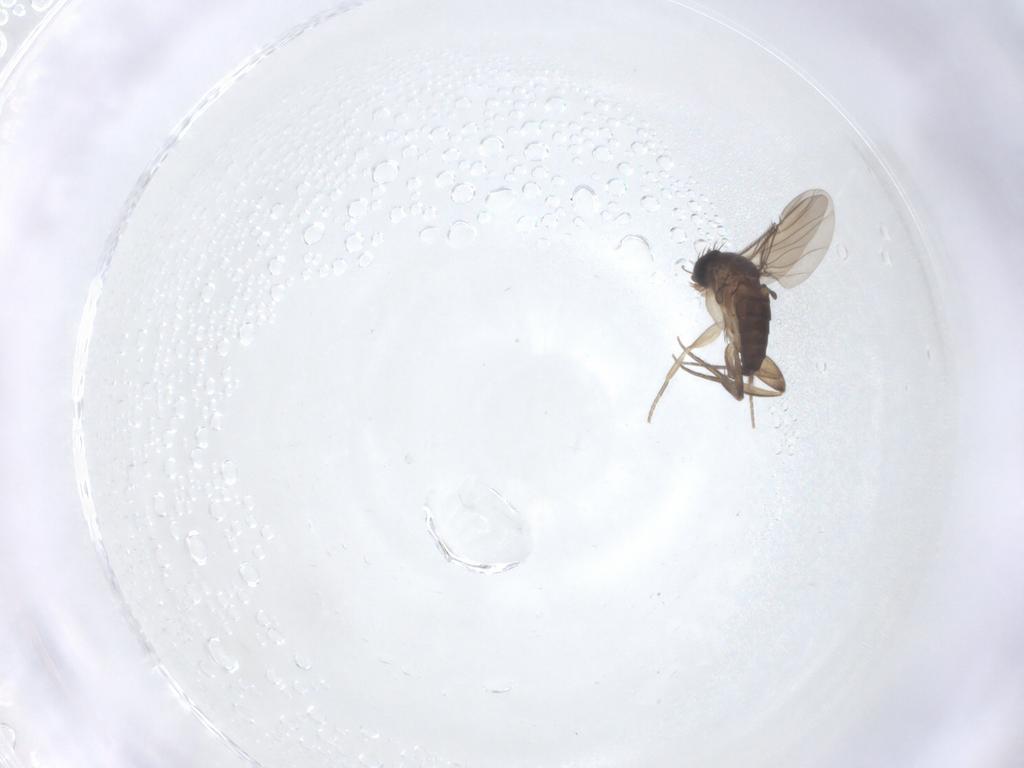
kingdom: Animalia
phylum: Arthropoda
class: Insecta
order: Diptera
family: Phoridae
